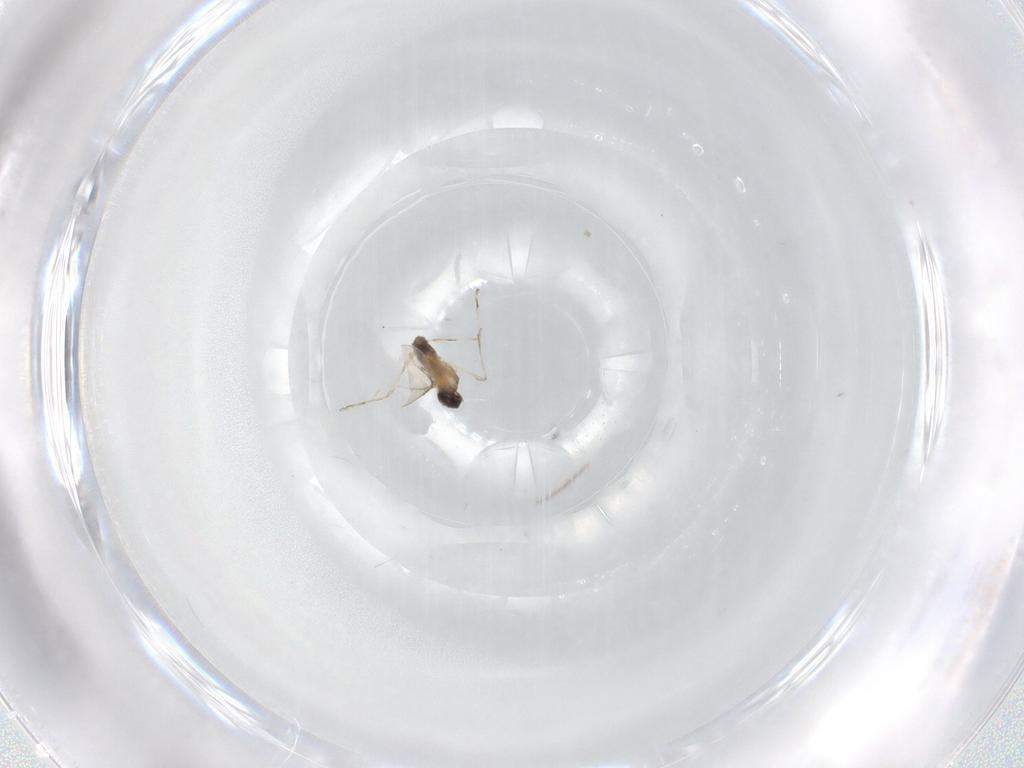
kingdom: Animalia
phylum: Arthropoda
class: Insecta
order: Diptera
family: Cecidomyiidae
